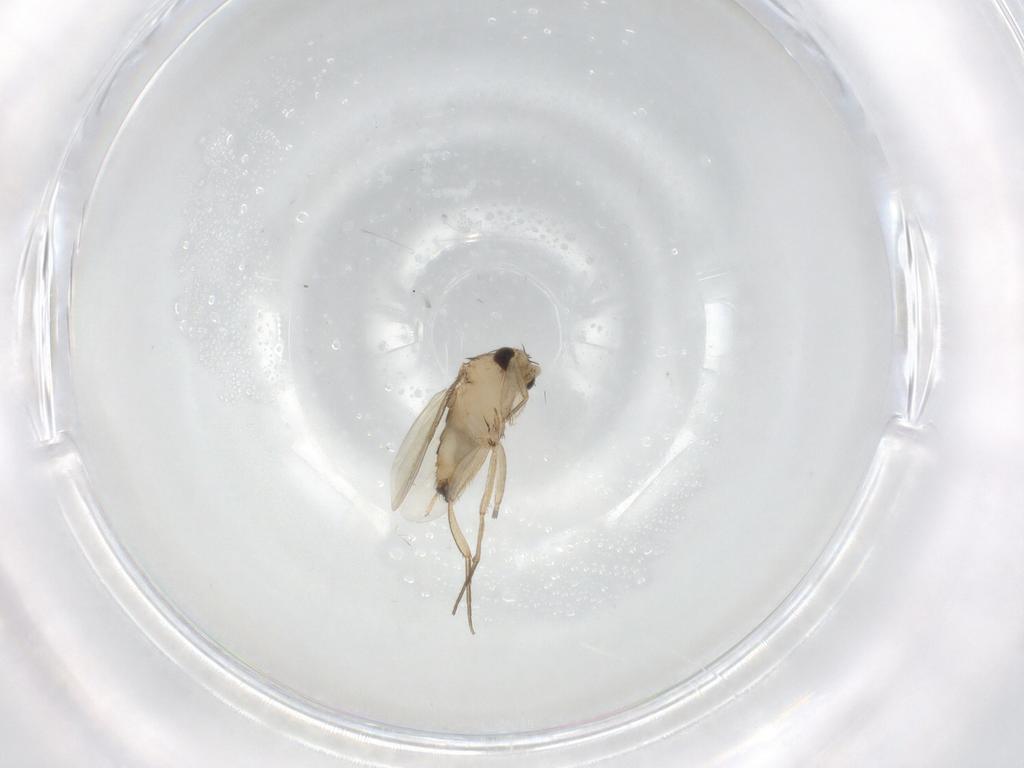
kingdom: Animalia
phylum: Arthropoda
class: Insecta
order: Diptera
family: Phoridae
